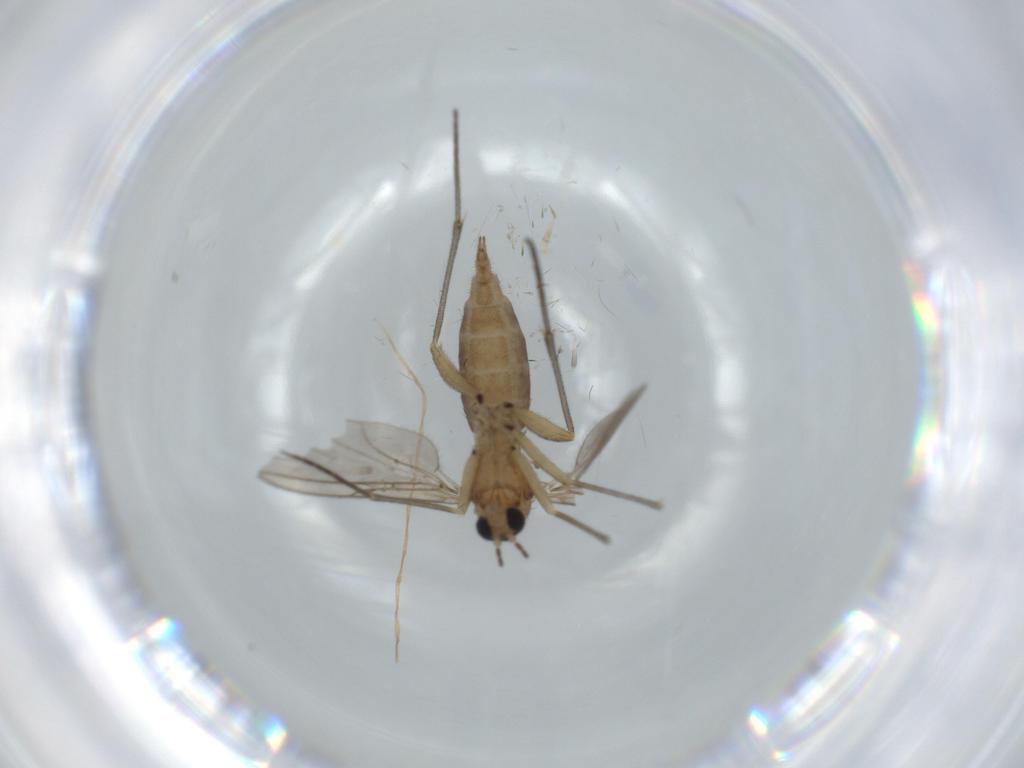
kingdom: Animalia
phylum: Arthropoda
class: Insecta
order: Diptera
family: Sciaridae
